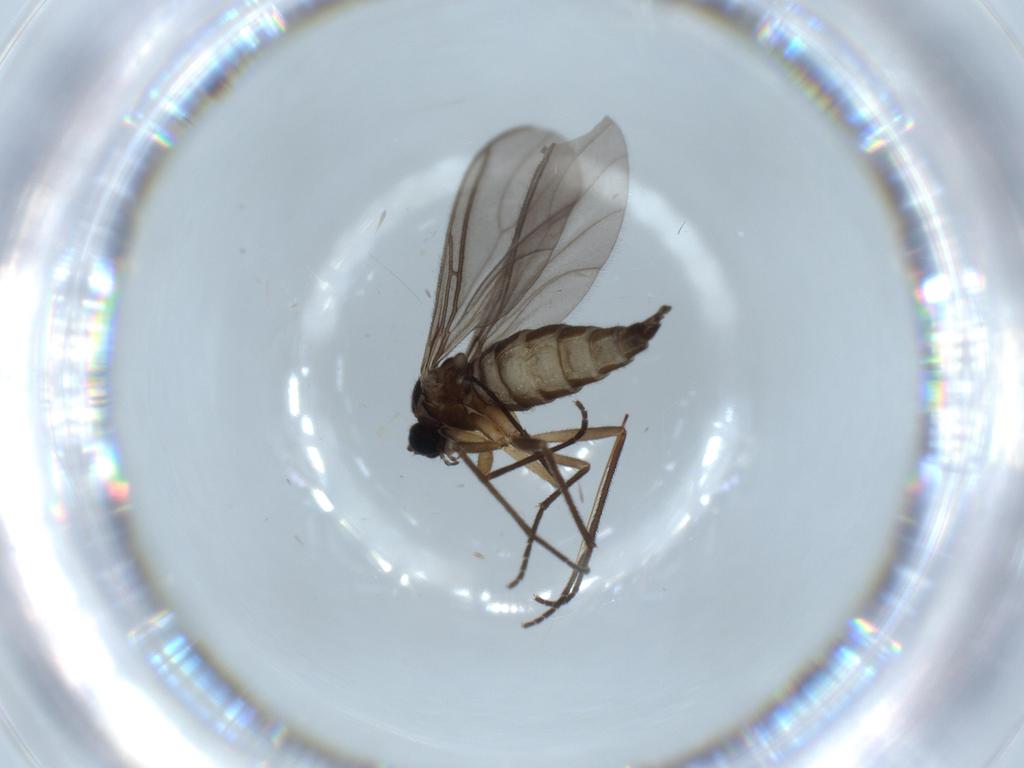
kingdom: Animalia
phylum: Arthropoda
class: Insecta
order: Diptera
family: Sciaridae
